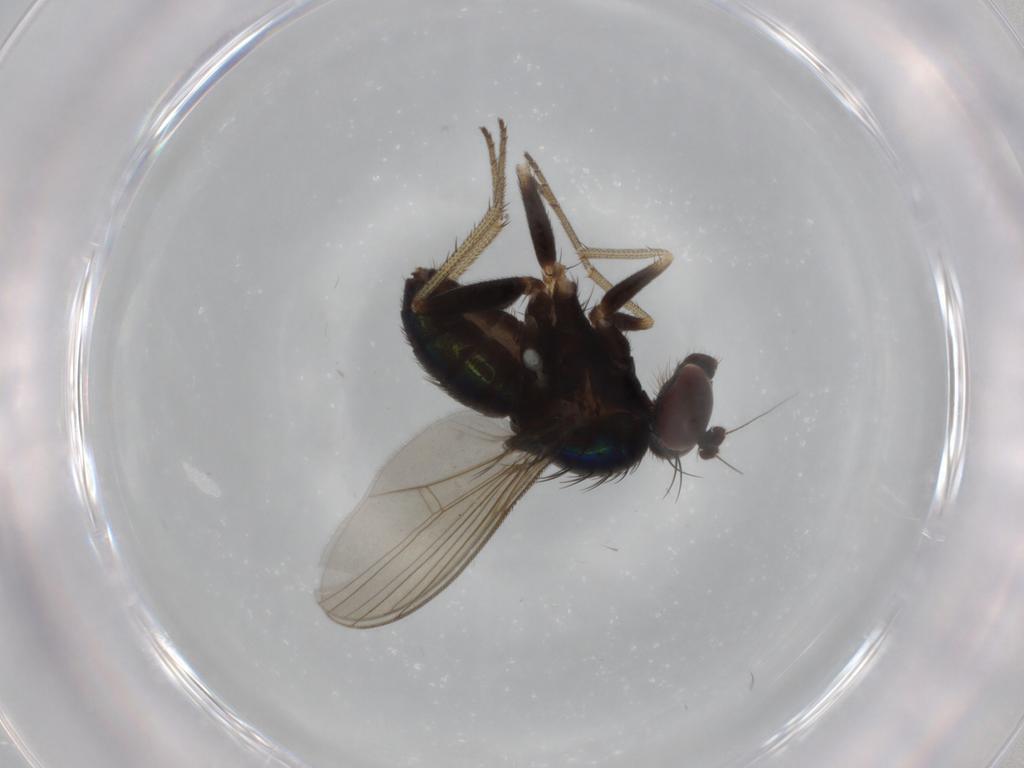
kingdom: Animalia
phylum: Arthropoda
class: Insecta
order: Diptera
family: Dolichopodidae
